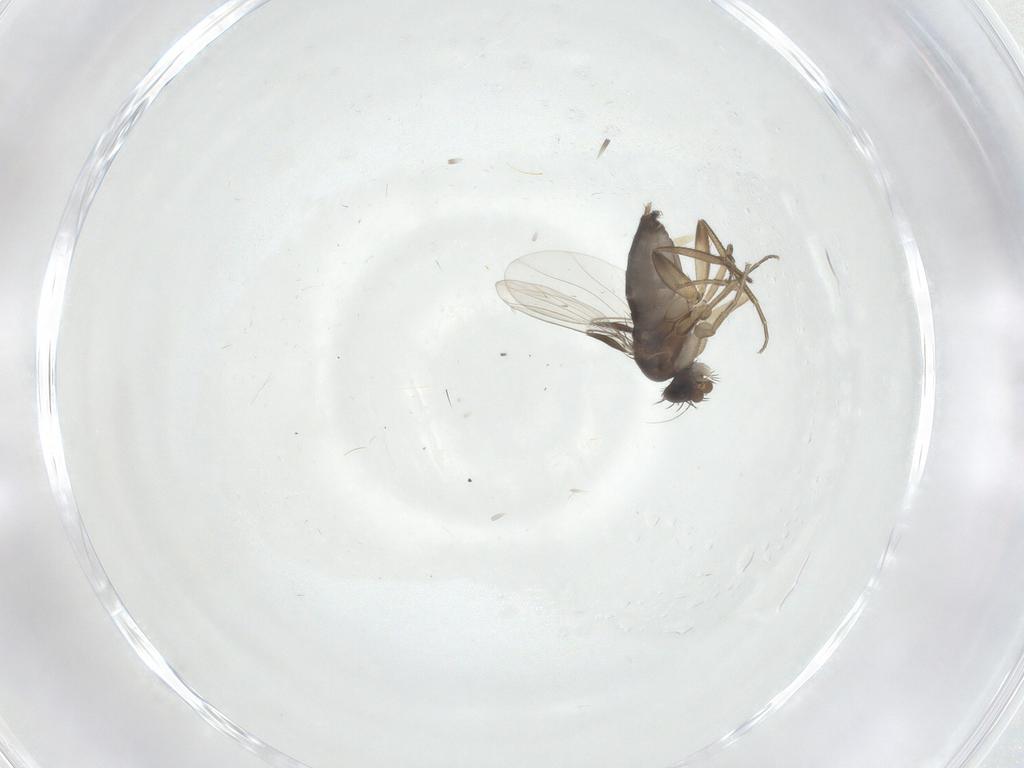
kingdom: Animalia
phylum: Arthropoda
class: Insecta
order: Diptera
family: Phoridae
